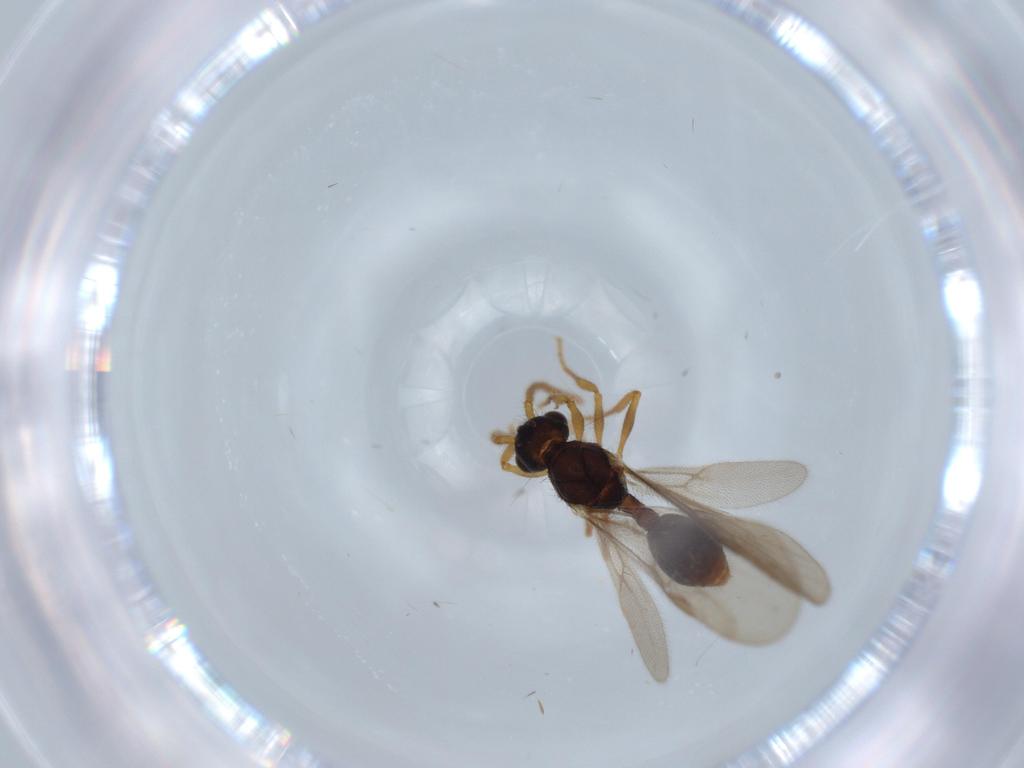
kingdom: Animalia
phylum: Arthropoda
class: Insecta
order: Hymenoptera
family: Formicidae
